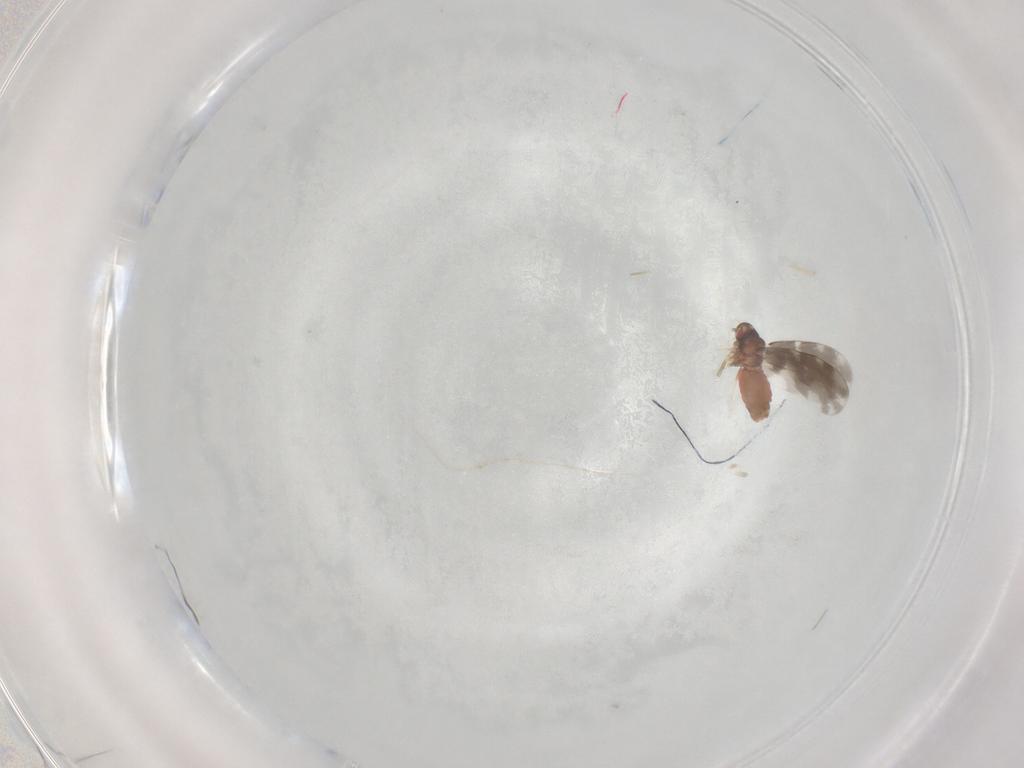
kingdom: Animalia
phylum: Arthropoda
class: Insecta
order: Hemiptera
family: Aleyrodidae
